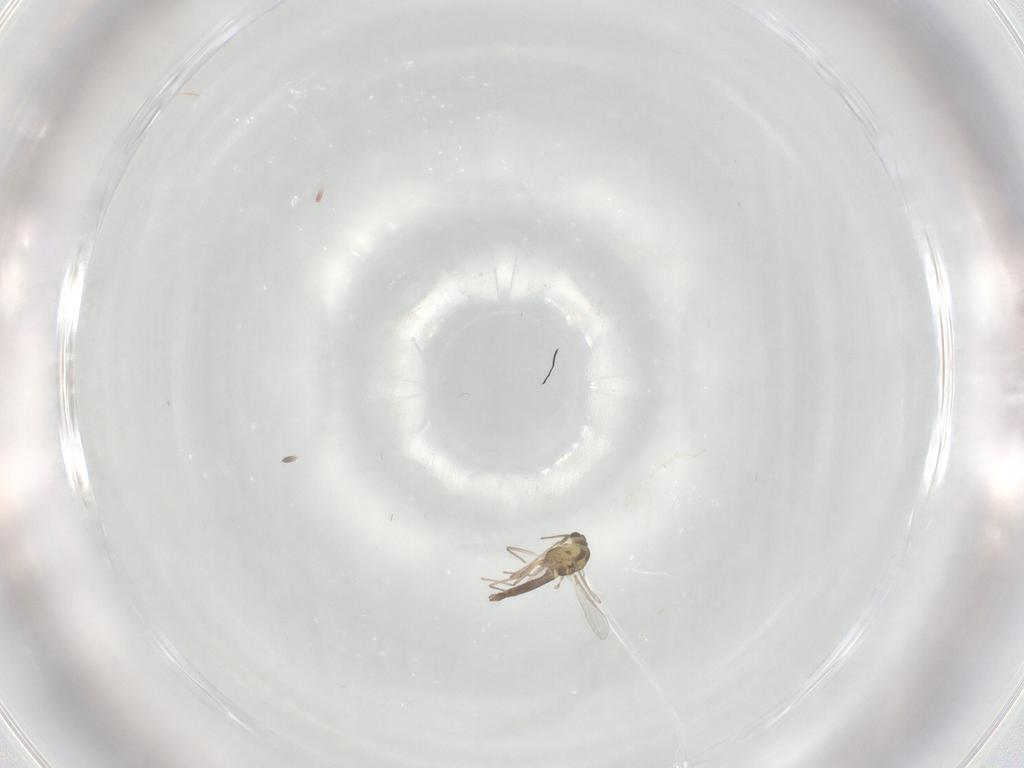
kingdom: Animalia
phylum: Arthropoda
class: Insecta
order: Diptera
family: Chironomidae
